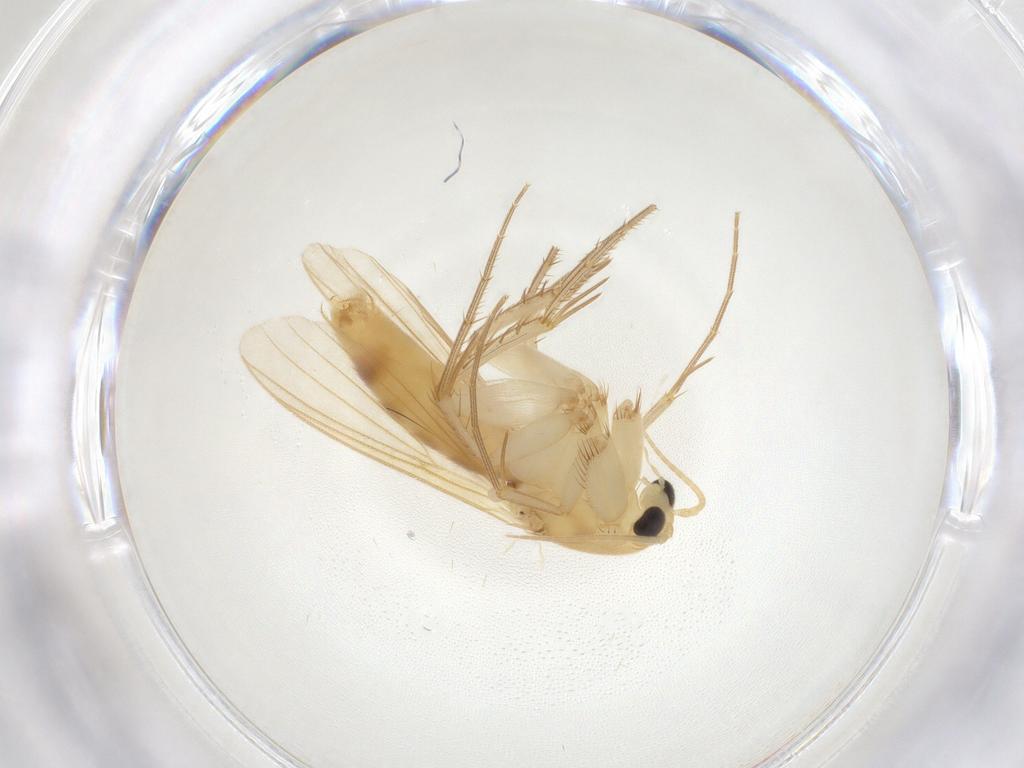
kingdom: Animalia
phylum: Arthropoda
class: Insecta
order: Diptera
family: Mycetophilidae
